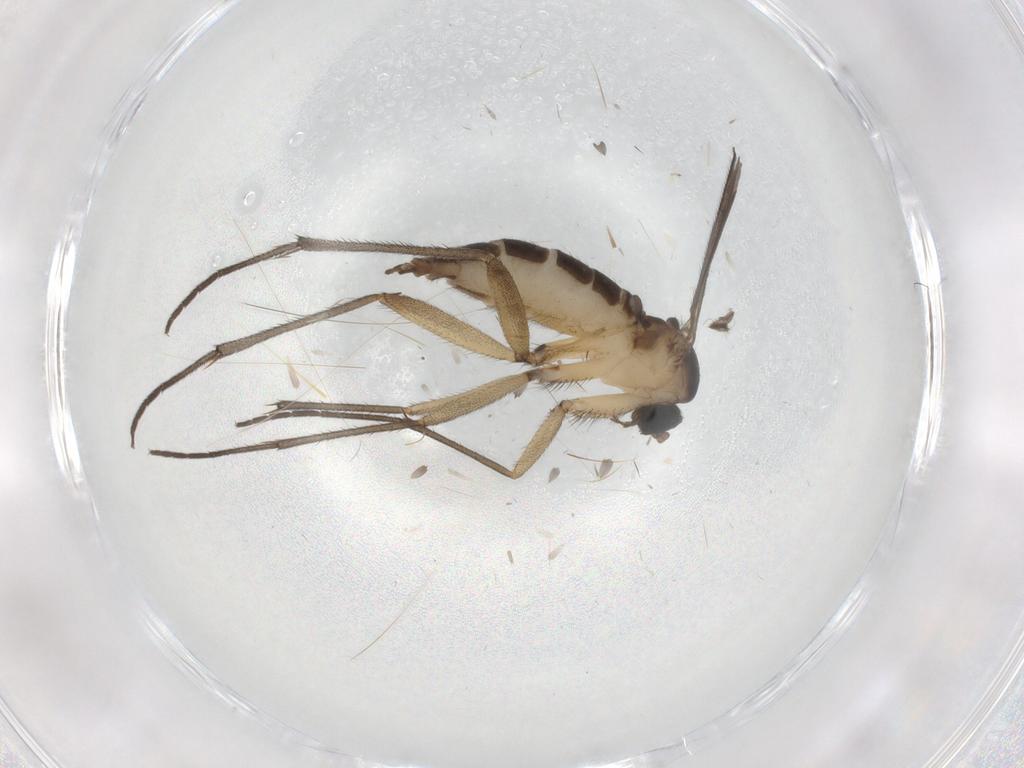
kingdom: Animalia
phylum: Arthropoda
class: Insecta
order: Diptera
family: Sciaridae
